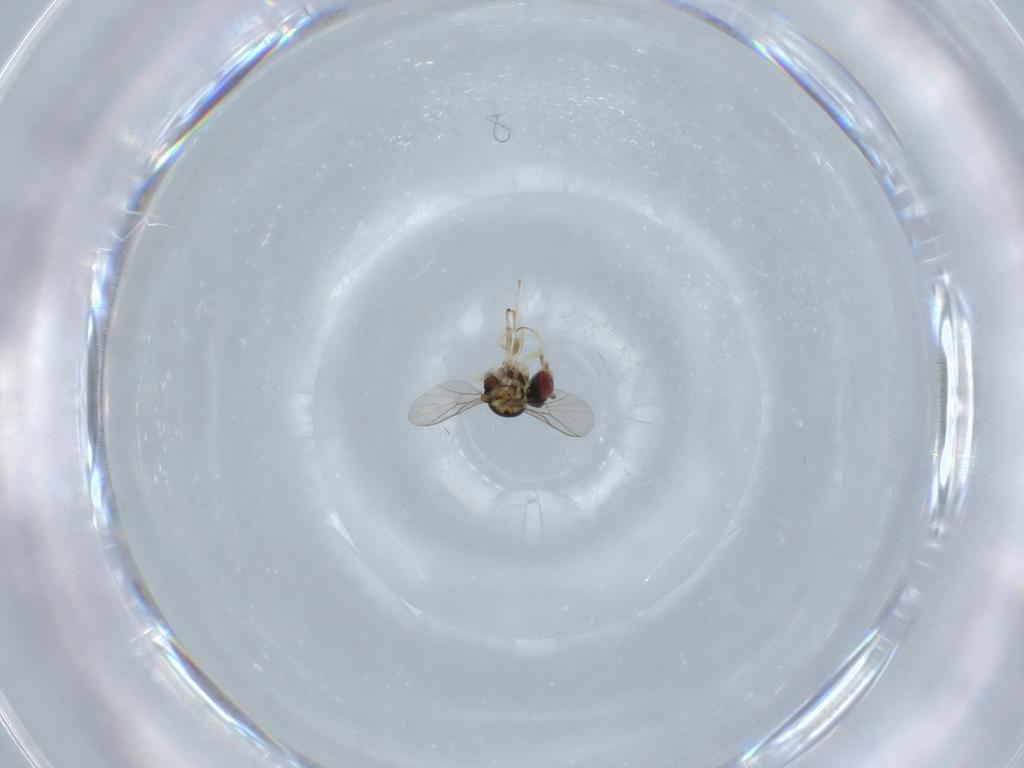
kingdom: Animalia
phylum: Arthropoda
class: Insecta
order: Diptera
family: Bombyliidae
